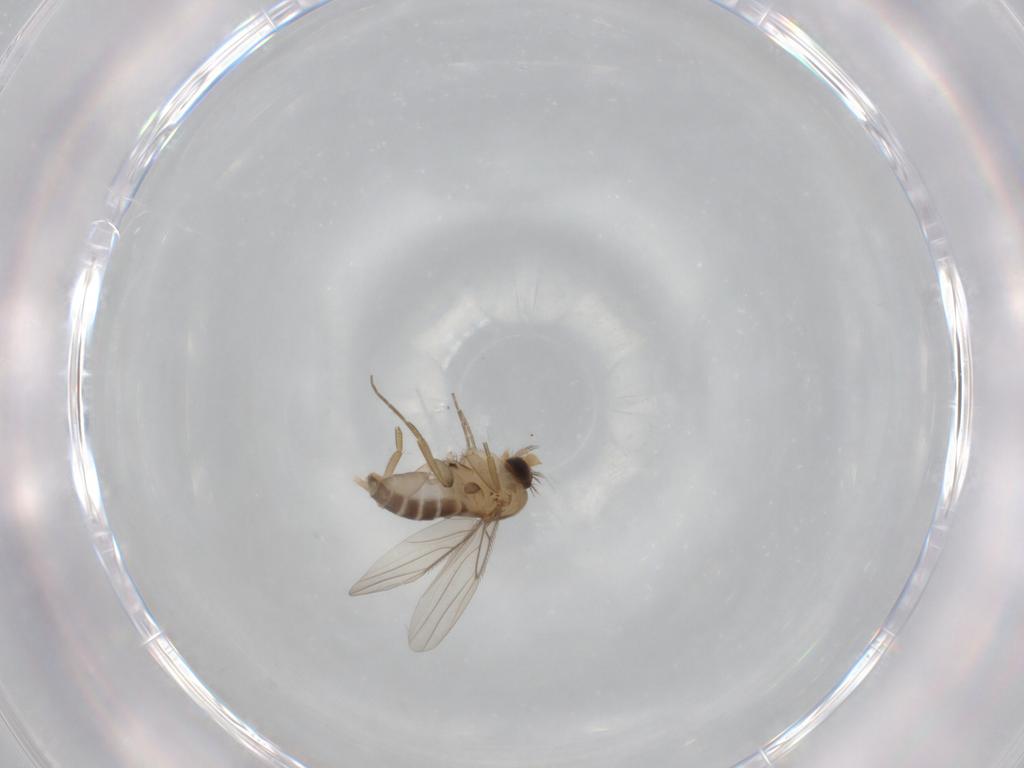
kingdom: Animalia
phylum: Arthropoda
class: Insecta
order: Diptera
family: Phoridae
